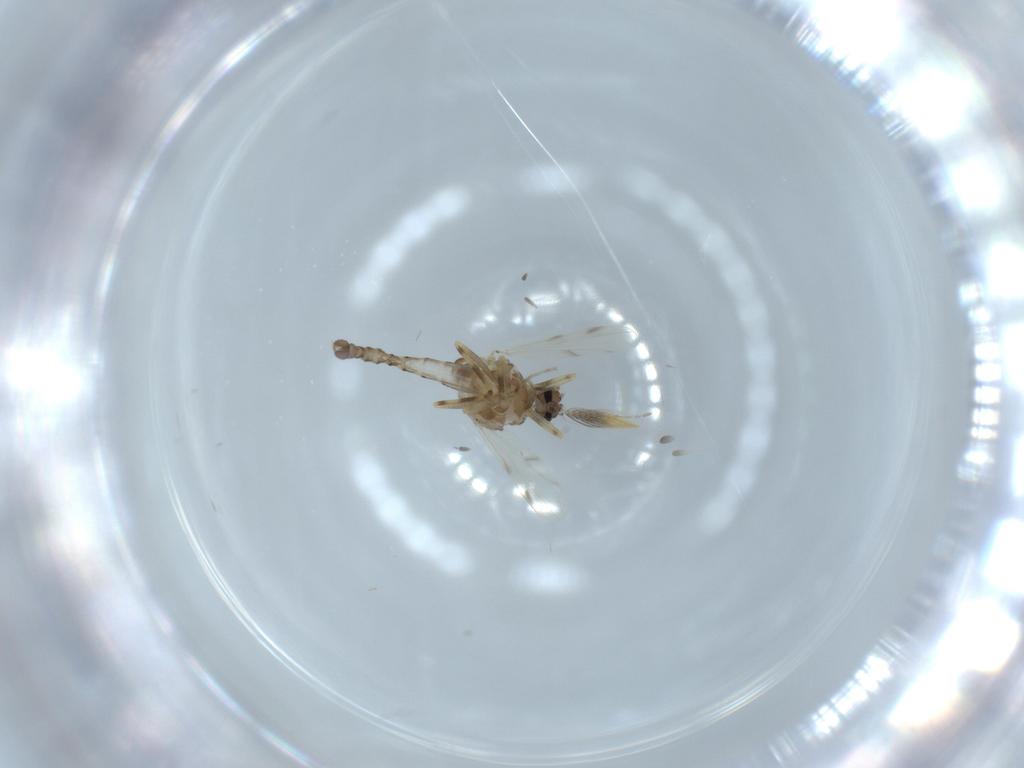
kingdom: Animalia
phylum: Arthropoda
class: Insecta
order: Diptera
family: Ceratopogonidae
